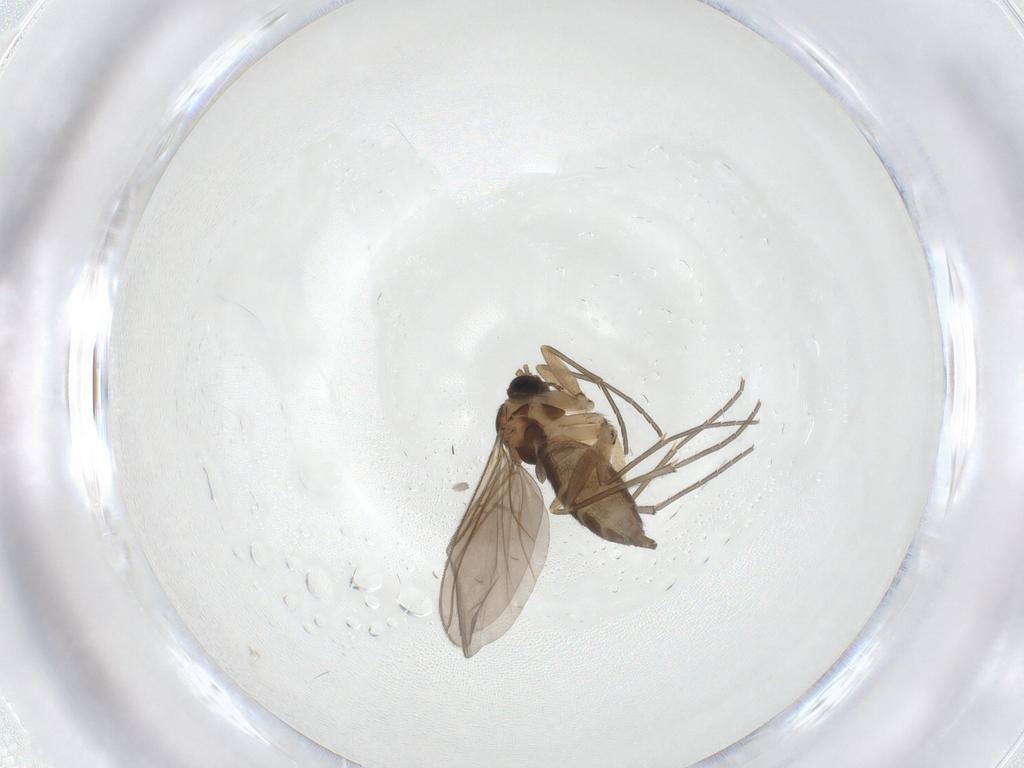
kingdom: Animalia
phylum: Arthropoda
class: Insecta
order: Diptera
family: Sciaridae
